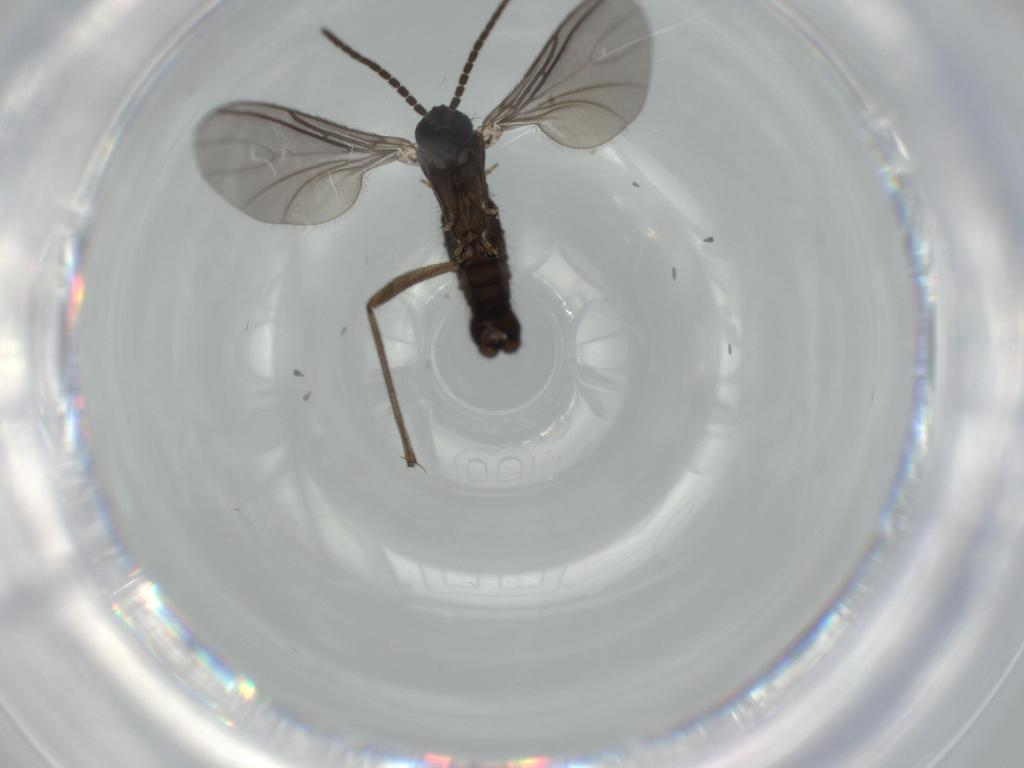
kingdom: Animalia
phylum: Arthropoda
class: Insecta
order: Diptera
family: Sciaridae
